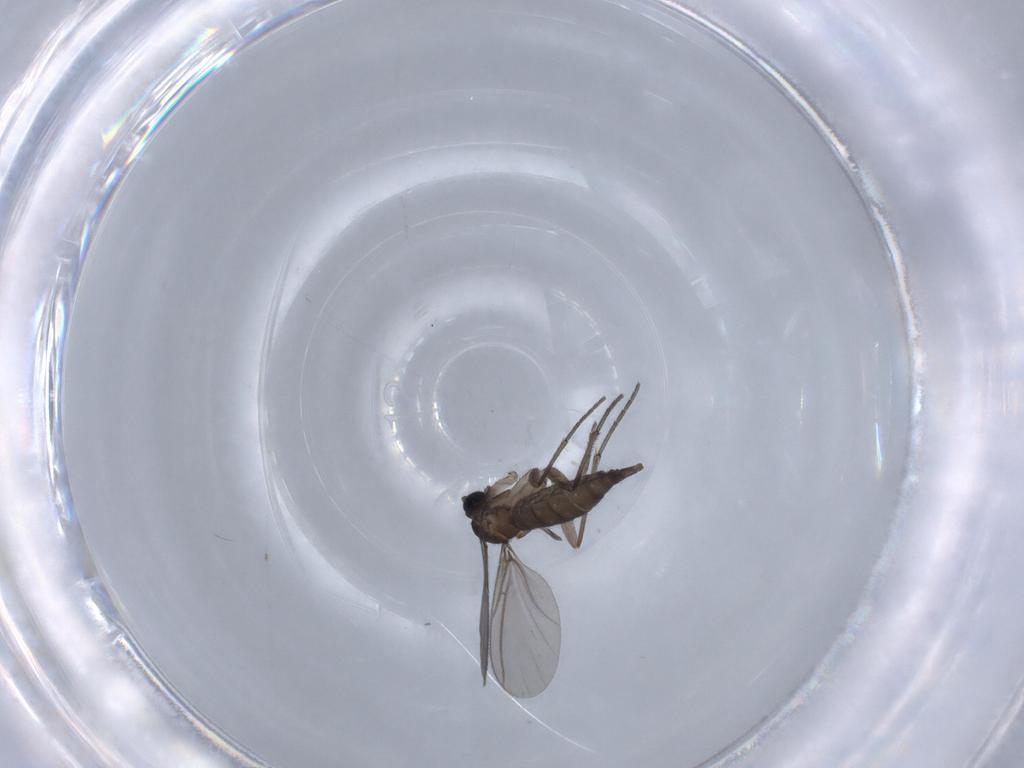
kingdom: Animalia
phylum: Arthropoda
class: Insecta
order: Diptera
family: Sciaridae
